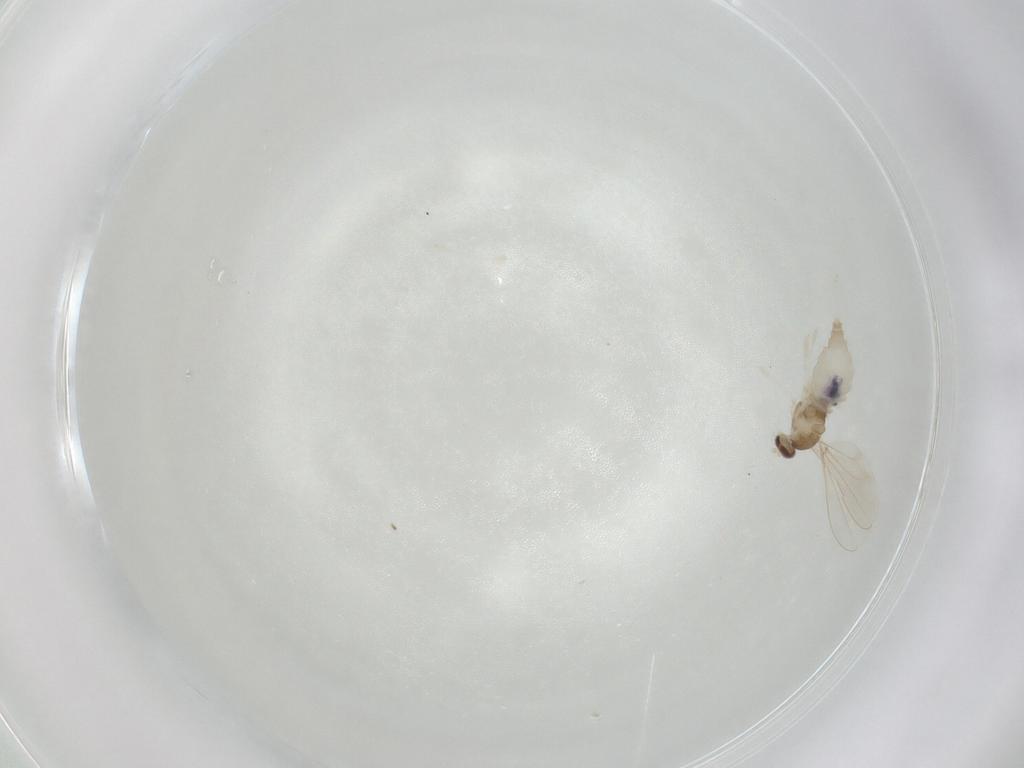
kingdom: Animalia
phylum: Arthropoda
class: Insecta
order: Diptera
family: Cecidomyiidae
